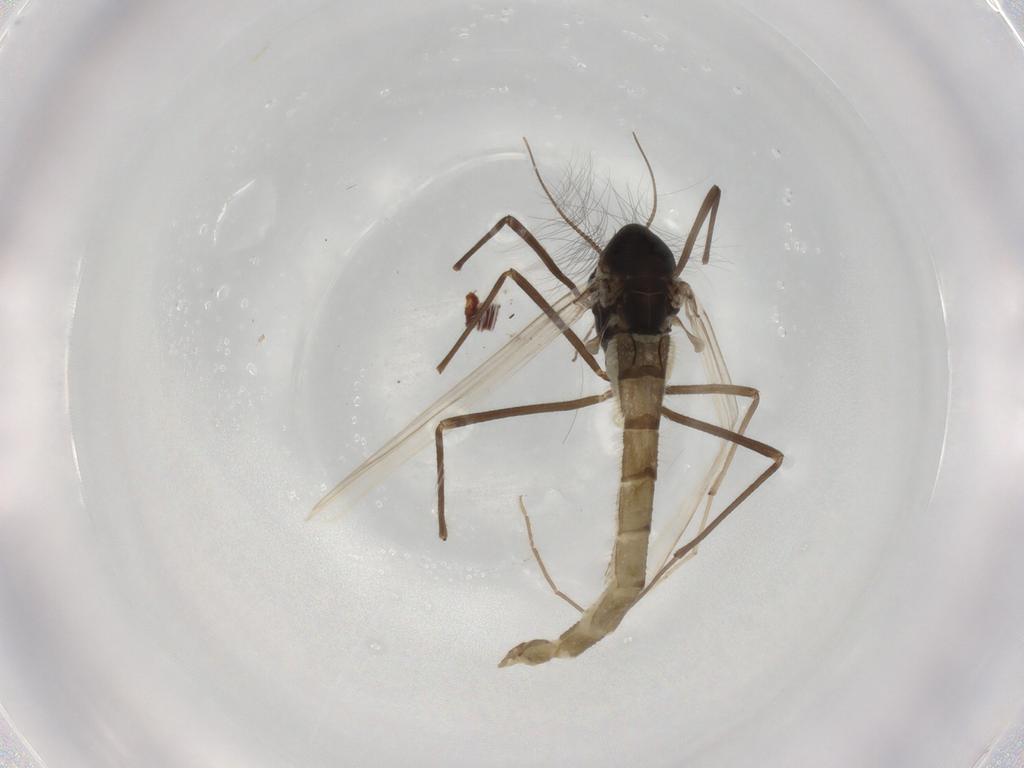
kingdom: Animalia
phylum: Arthropoda
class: Insecta
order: Diptera
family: Chironomidae
